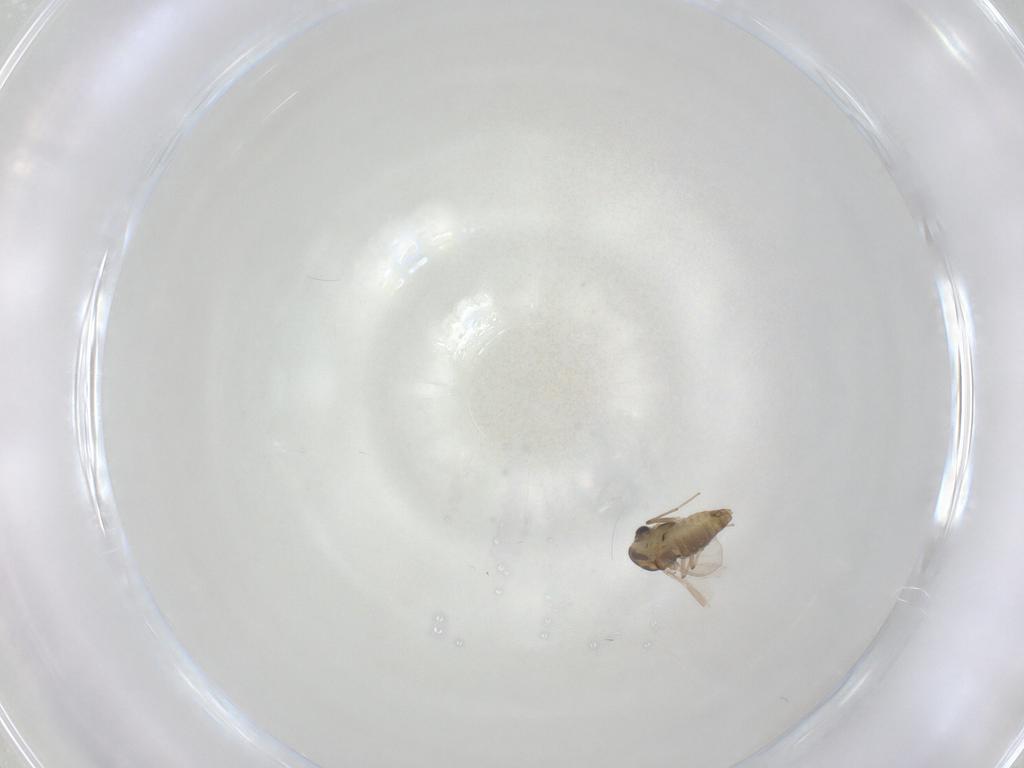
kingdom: Animalia
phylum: Arthropoda
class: Insecta
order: Diptera
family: Chironomidae
